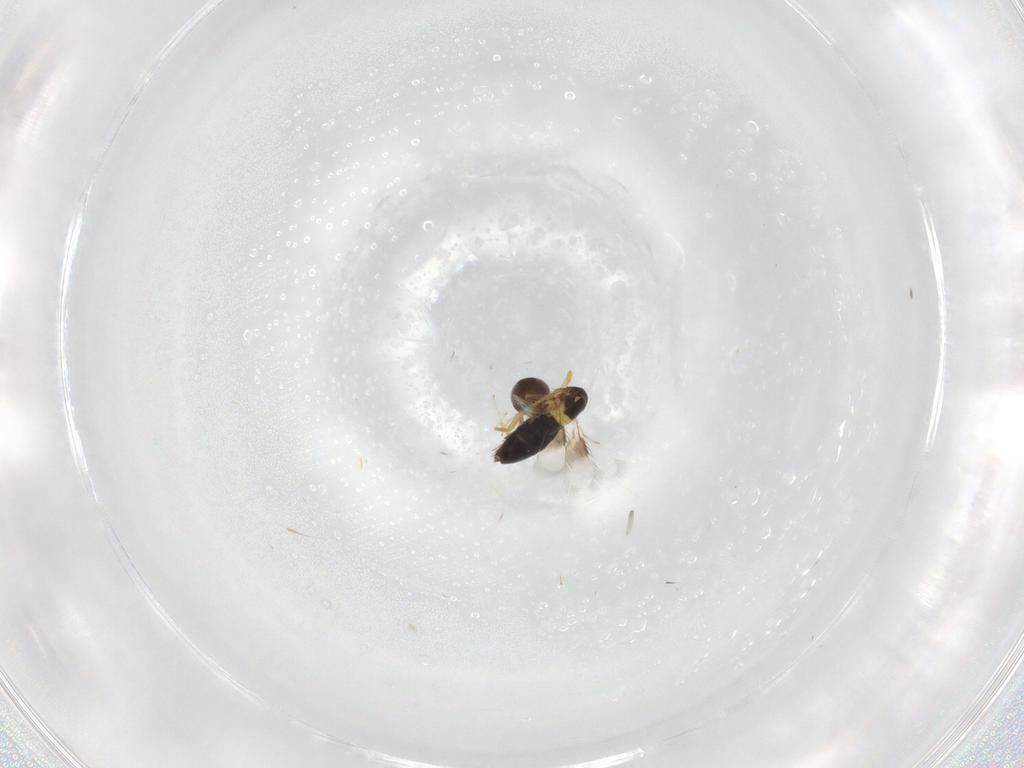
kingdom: Animalia
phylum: Arthropoda
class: Insecta
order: Hymenoptera
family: Signiphoridae
